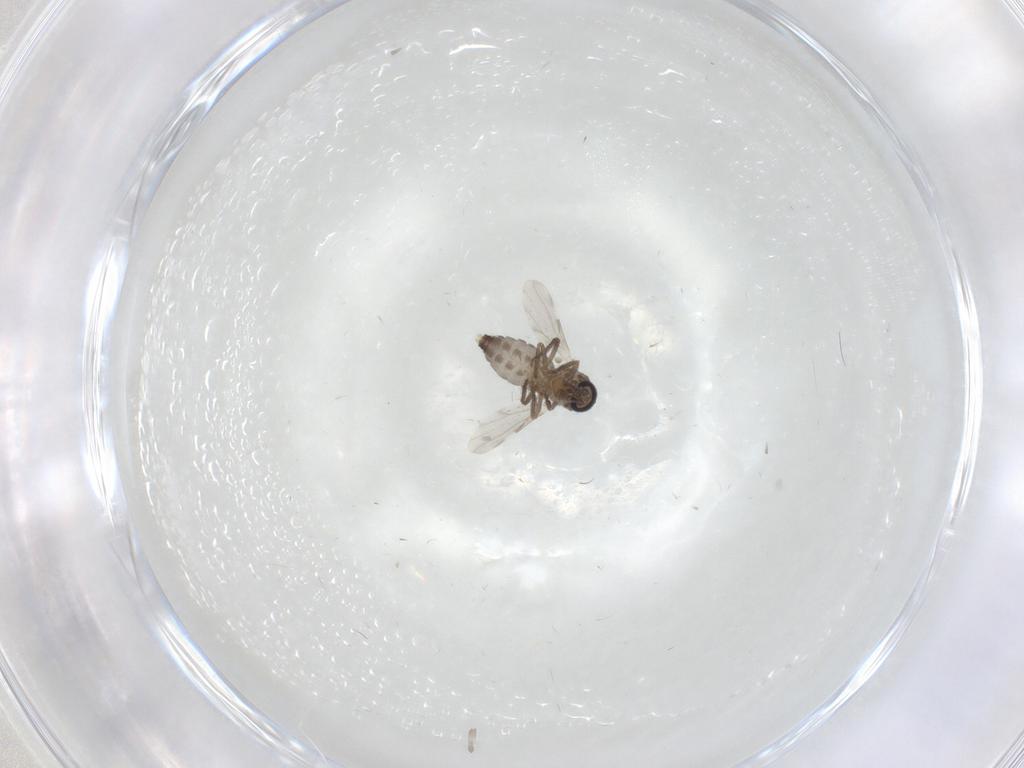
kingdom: Animalia
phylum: Arthropoda
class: Insecta
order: Diptera
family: Ceratopogonidae
